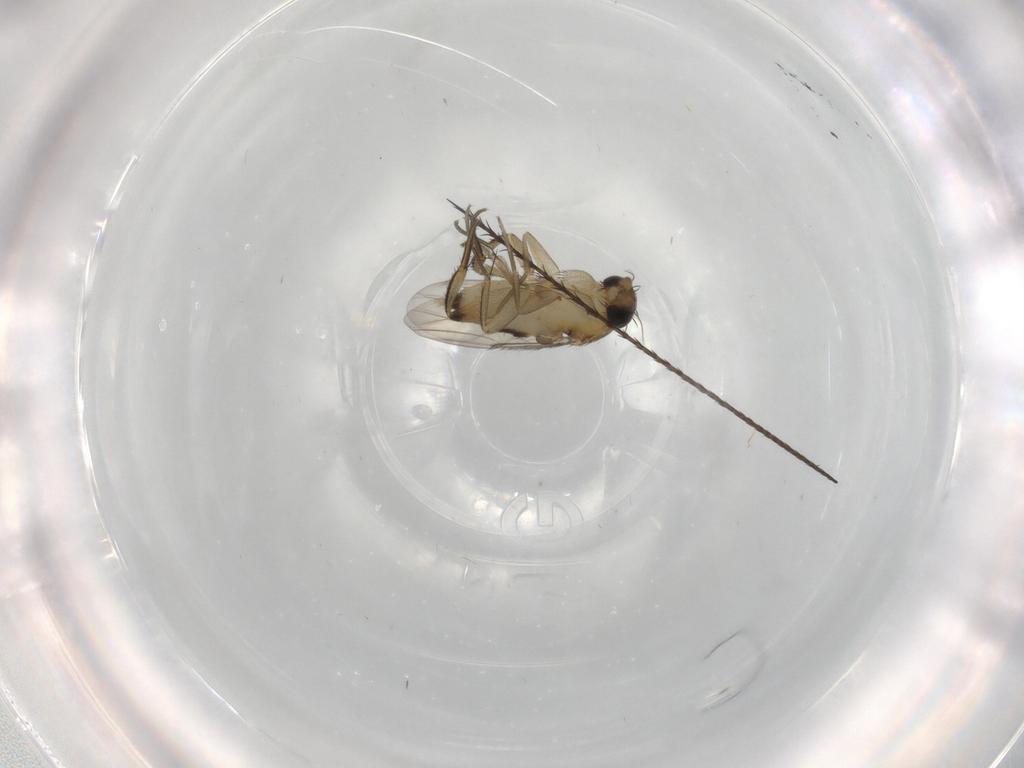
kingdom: Animalia
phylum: Arthropoda
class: Insecta
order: Diptera
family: Phoridae
